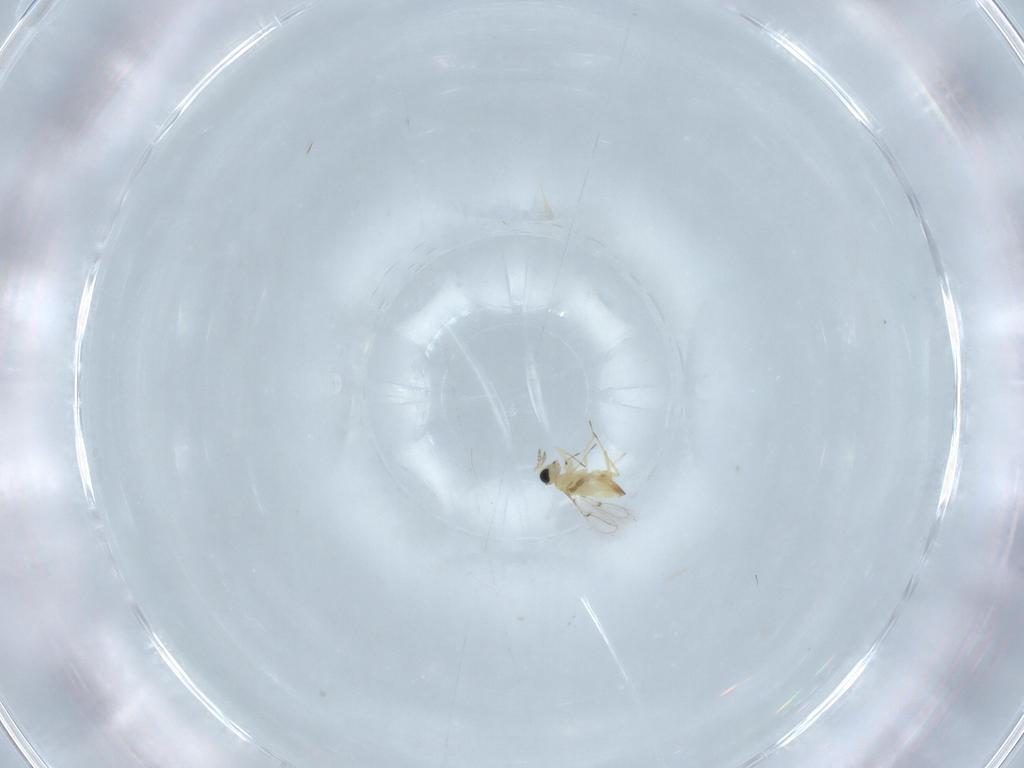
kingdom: Animalia
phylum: Arthropoda
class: Insecta
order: Hymenoptera
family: Trichogrammatidae
